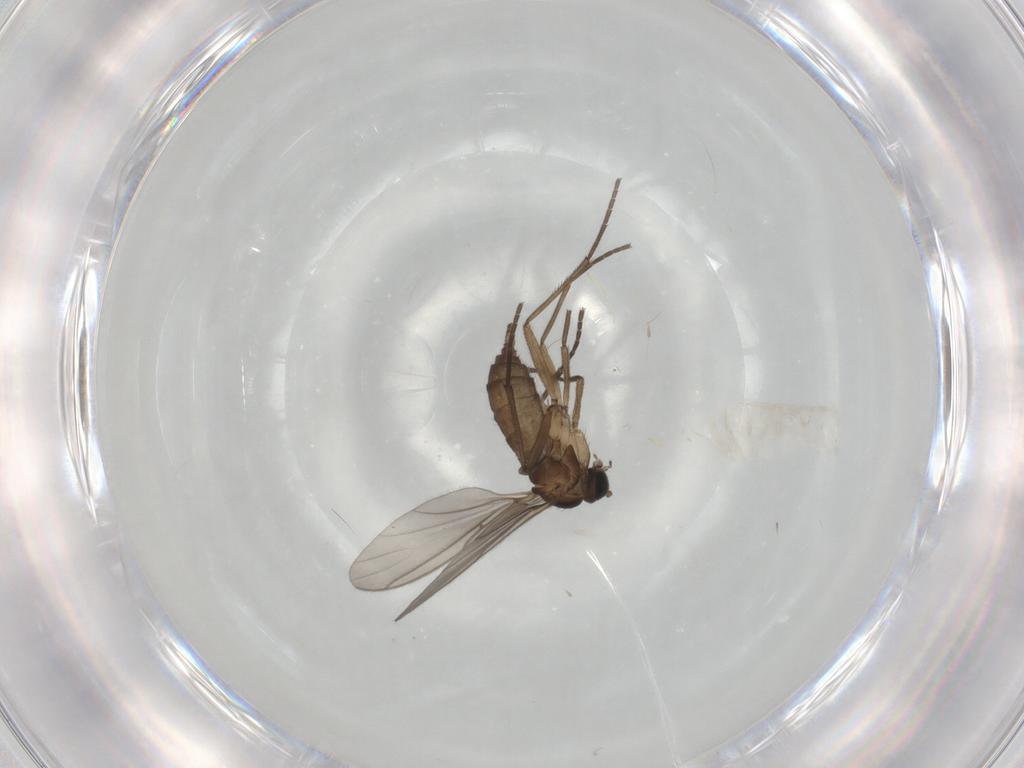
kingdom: Animalia
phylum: Arthropoda
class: Insecta
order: Diptera
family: Sciaridae
